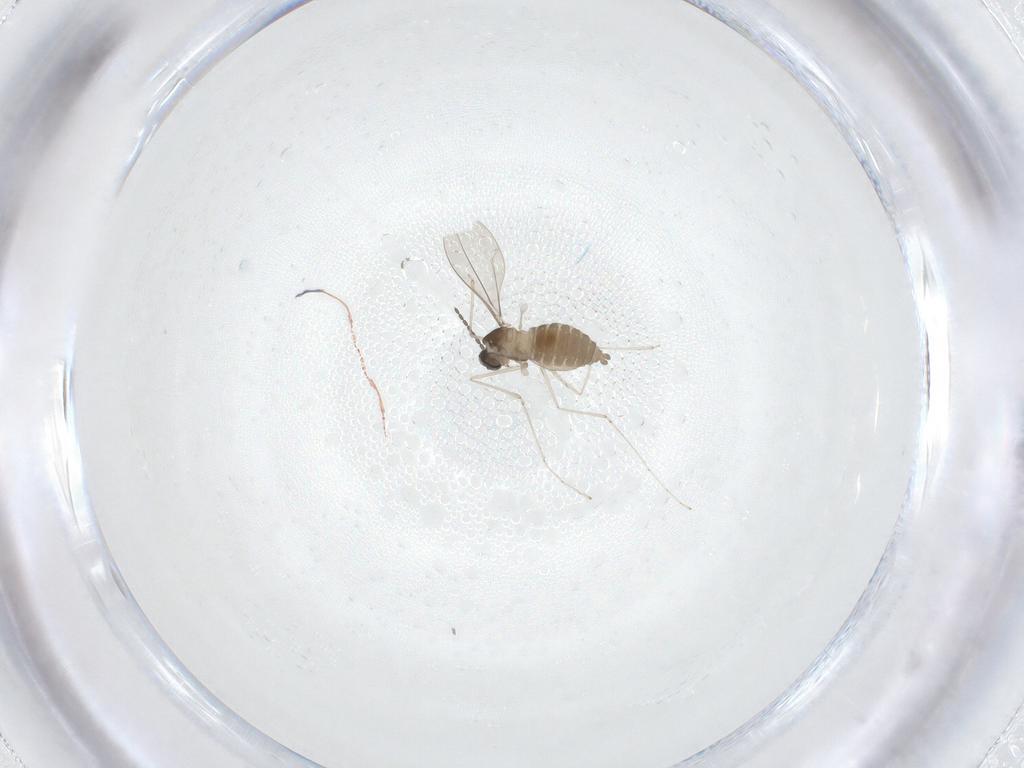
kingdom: Animalia
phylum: Arthropoda
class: Insecta
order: Diptera
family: Cecidomyiidae
